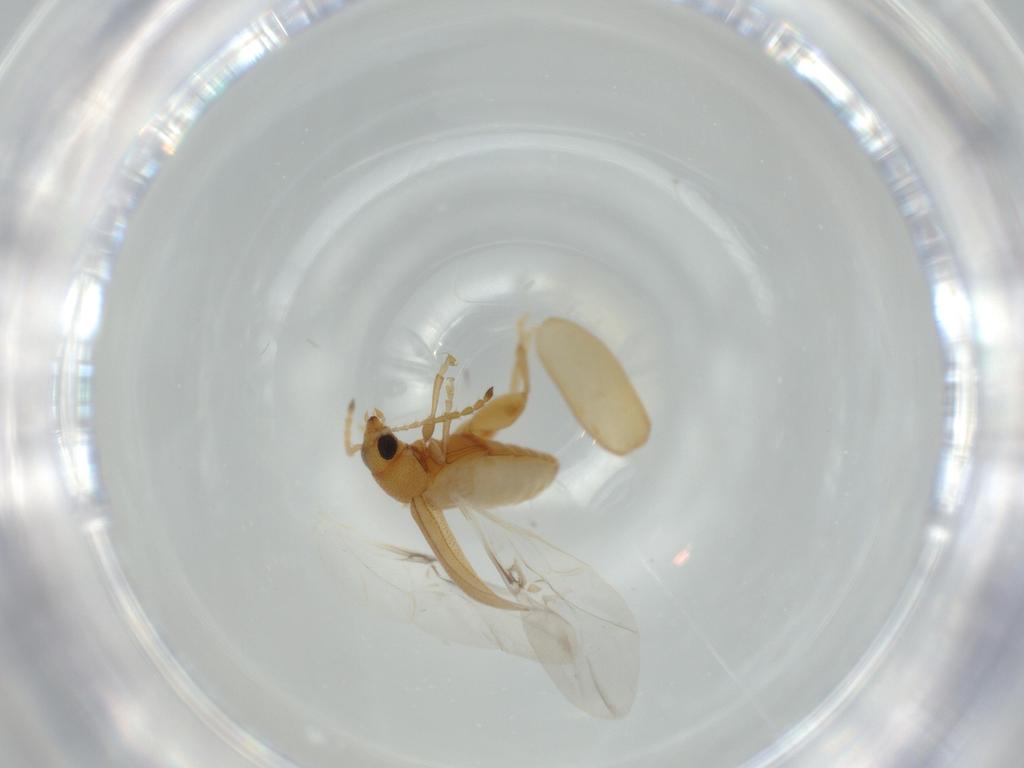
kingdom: Animalia
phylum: Arthropoda
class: Insecta
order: Coleoptera
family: Chrysomelidae
